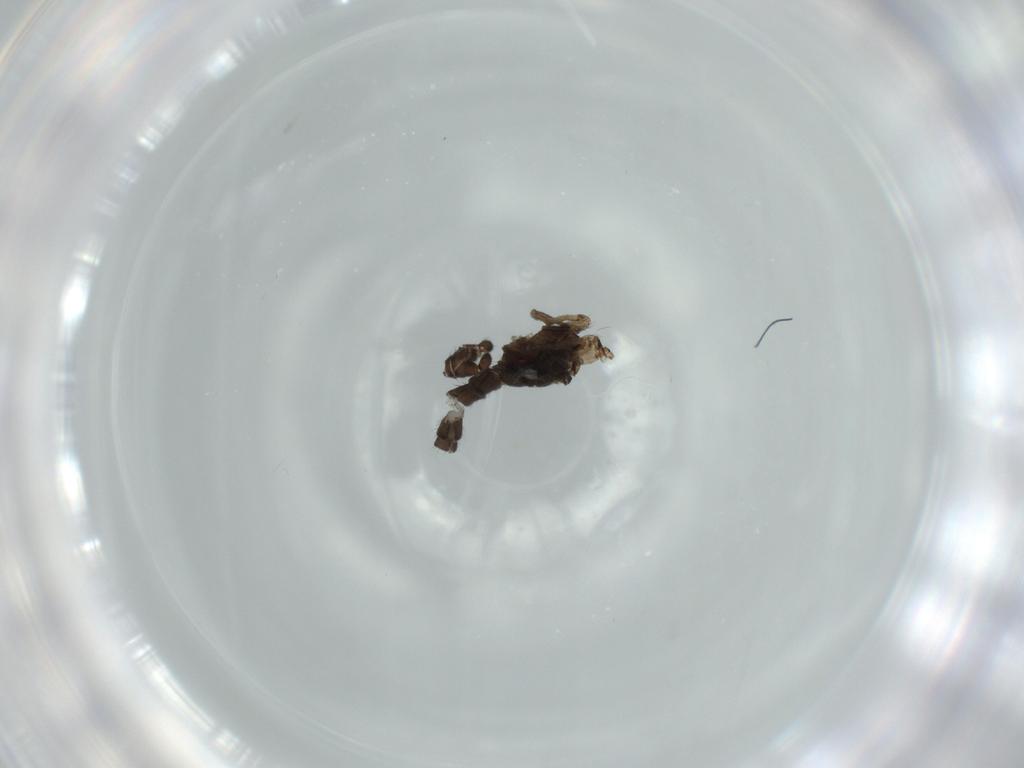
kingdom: Animalia
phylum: Arthropoda
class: Insecta
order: Diptera
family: Sciaridae
